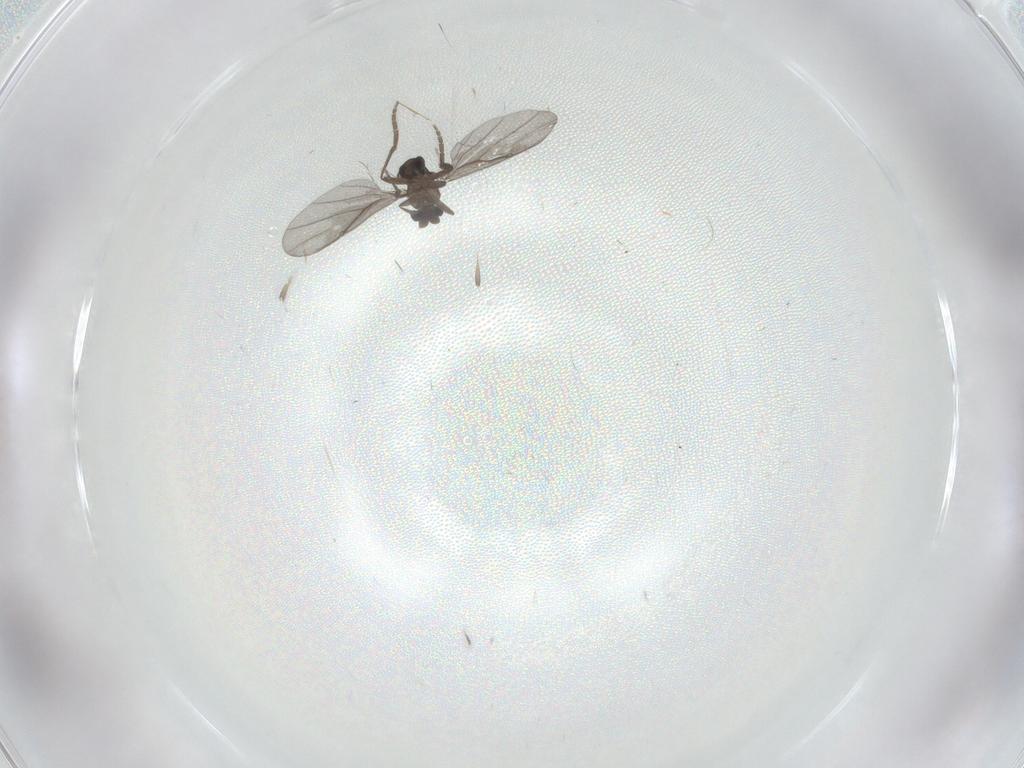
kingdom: Animalia
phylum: Arthropoda
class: Insecta
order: Diptera
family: Cecidomyiidae
